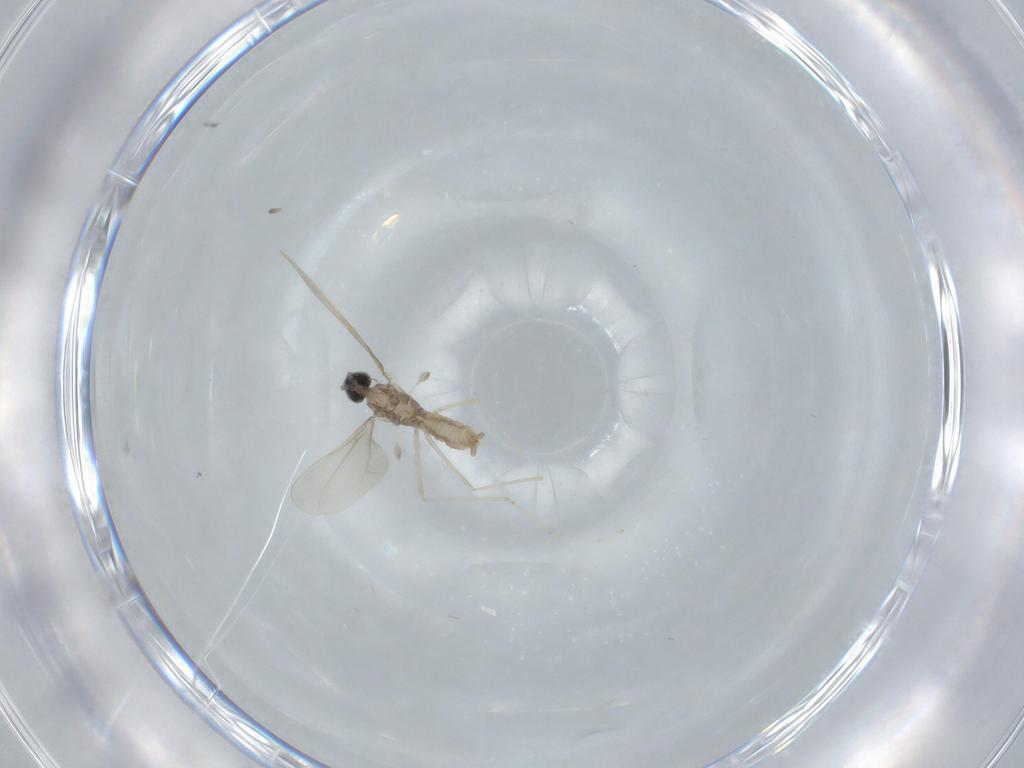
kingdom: Animalia
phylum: Arthropoda
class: Insecta
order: Diptera
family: Cecidomyiidae
